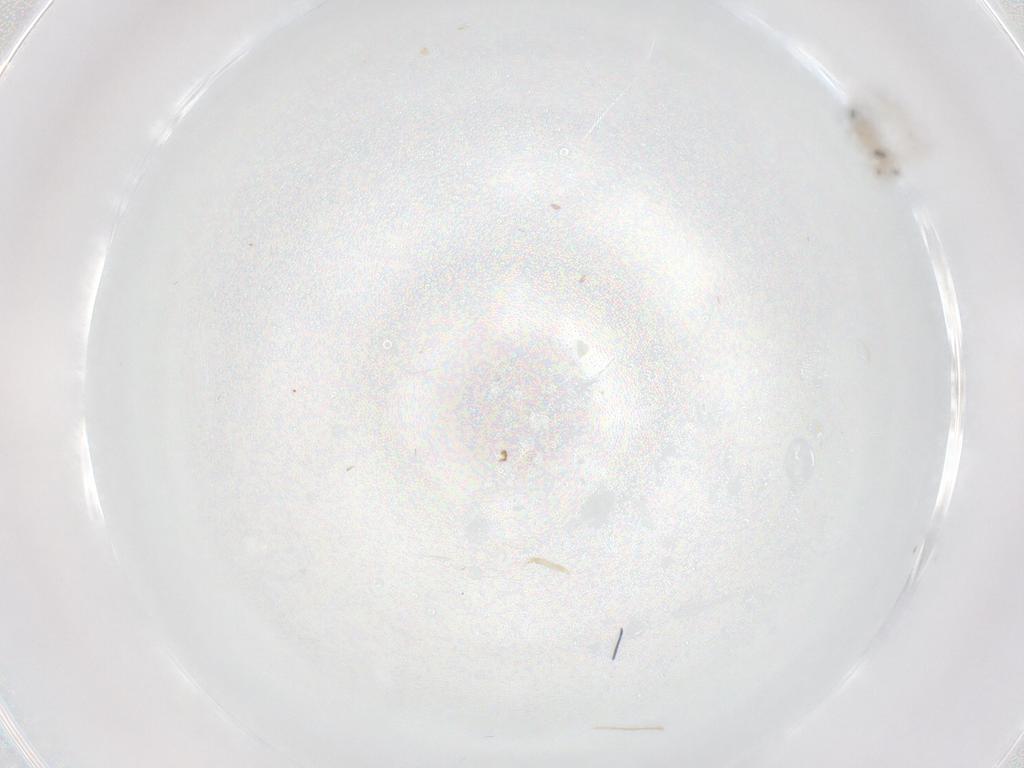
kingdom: Animalia
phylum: Arthropoda
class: Insecta
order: Diptera
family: Cecidomyiidae
